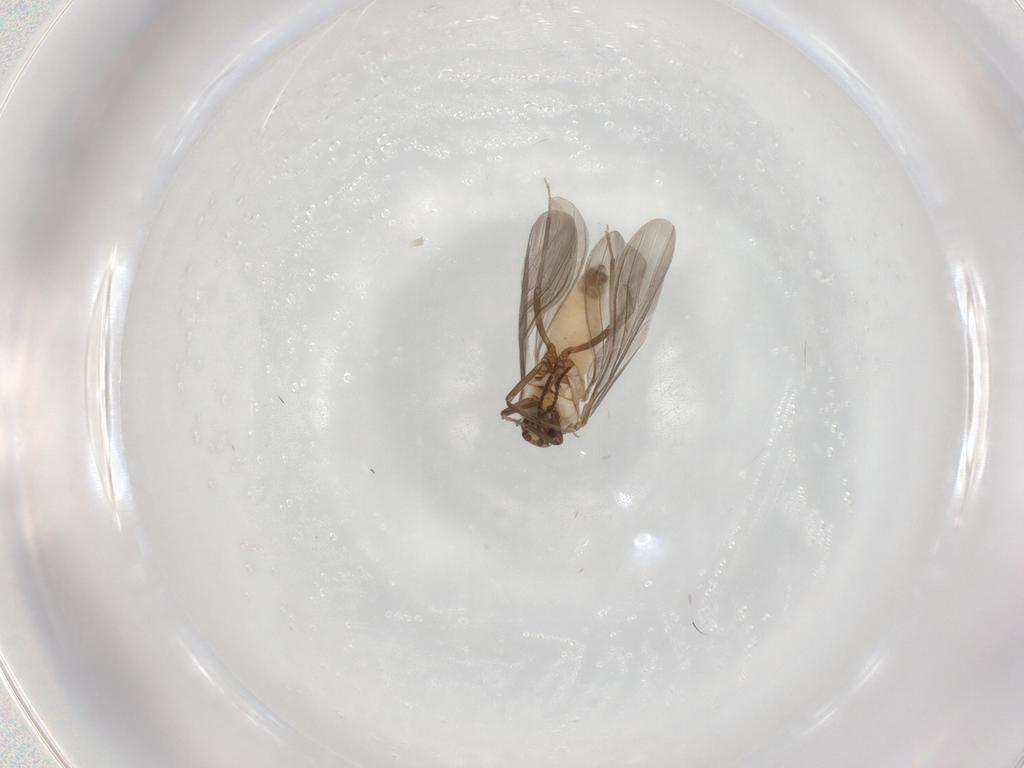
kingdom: Animalia
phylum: Arthropoda
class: Insecta
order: Neuroptera
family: Coniopterygidae
